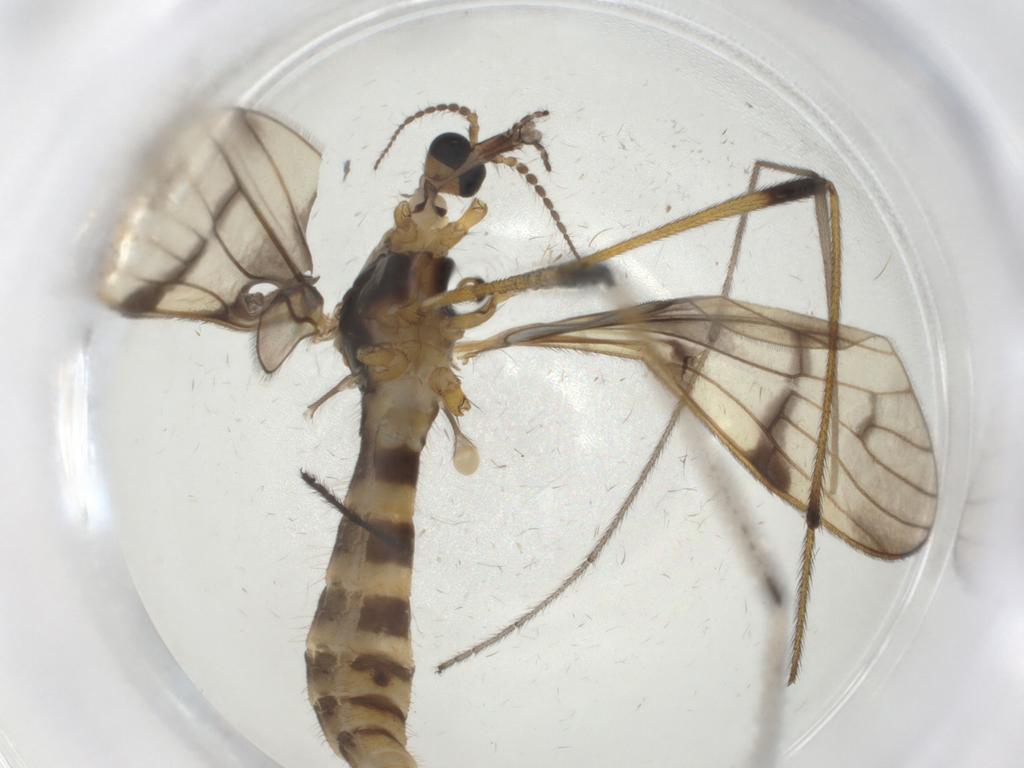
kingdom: Animalia
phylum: Arthropoda
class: Insecta
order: Diptera
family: Limoniidae
